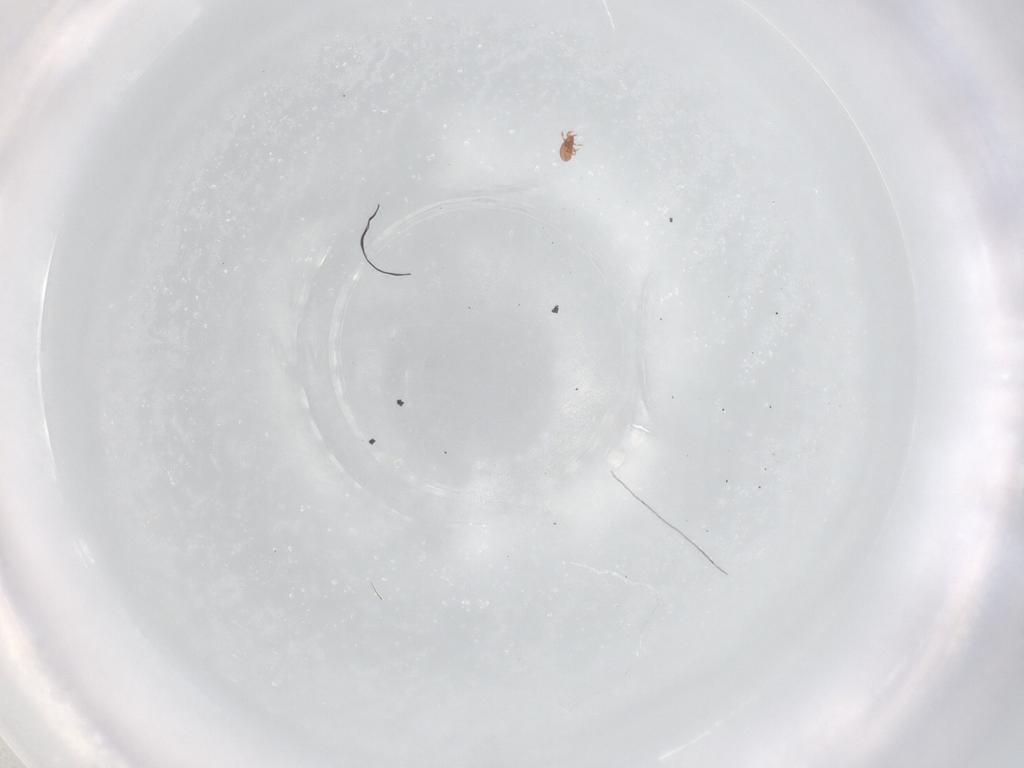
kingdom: Animalia
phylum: Arthropoda
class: Arachnida
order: Sarcoptiformes
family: Oppiidae
